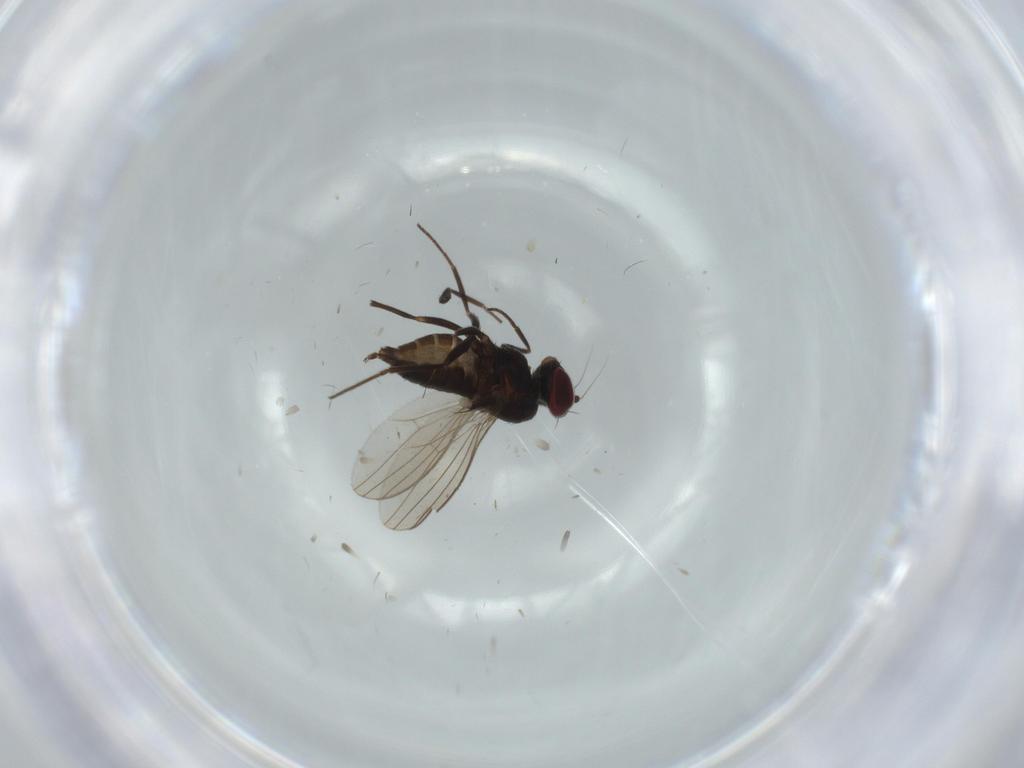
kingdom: Animalia
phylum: Arthropoda
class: Insecta
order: Diptera
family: Dolichopodidae
